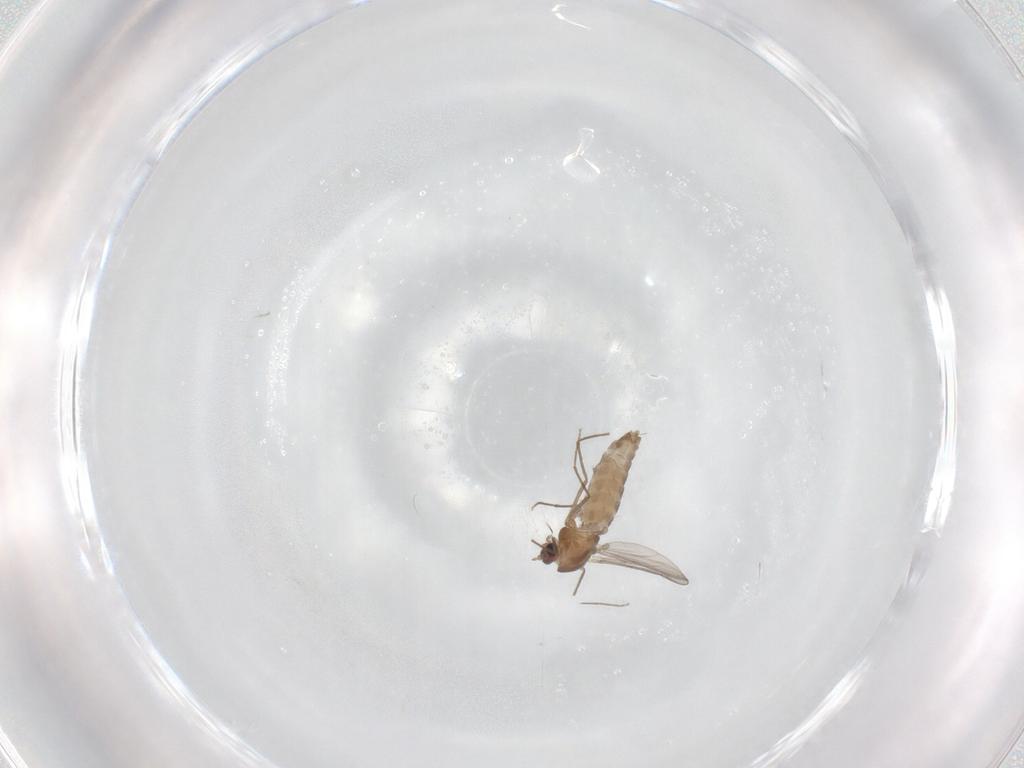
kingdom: Animalia
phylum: Arthropoda
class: Insecta
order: Diptera
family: Chironomidae
